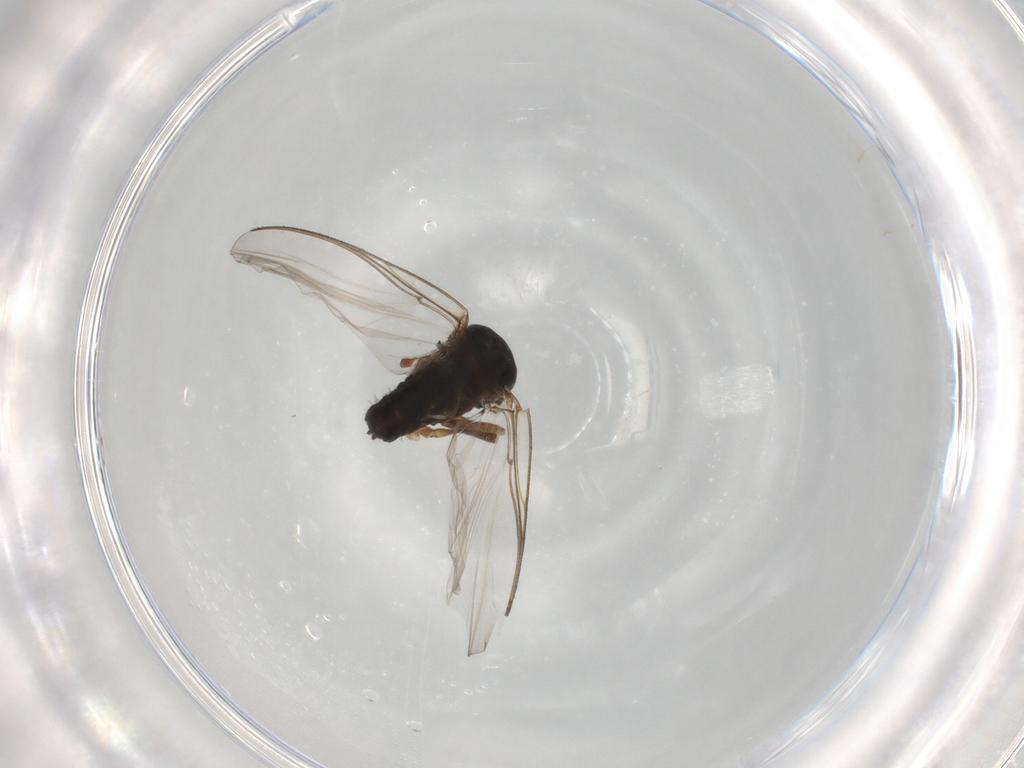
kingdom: Animalia
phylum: Arthropoda
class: Insecta
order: Diptera
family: Ceratopogonidae
